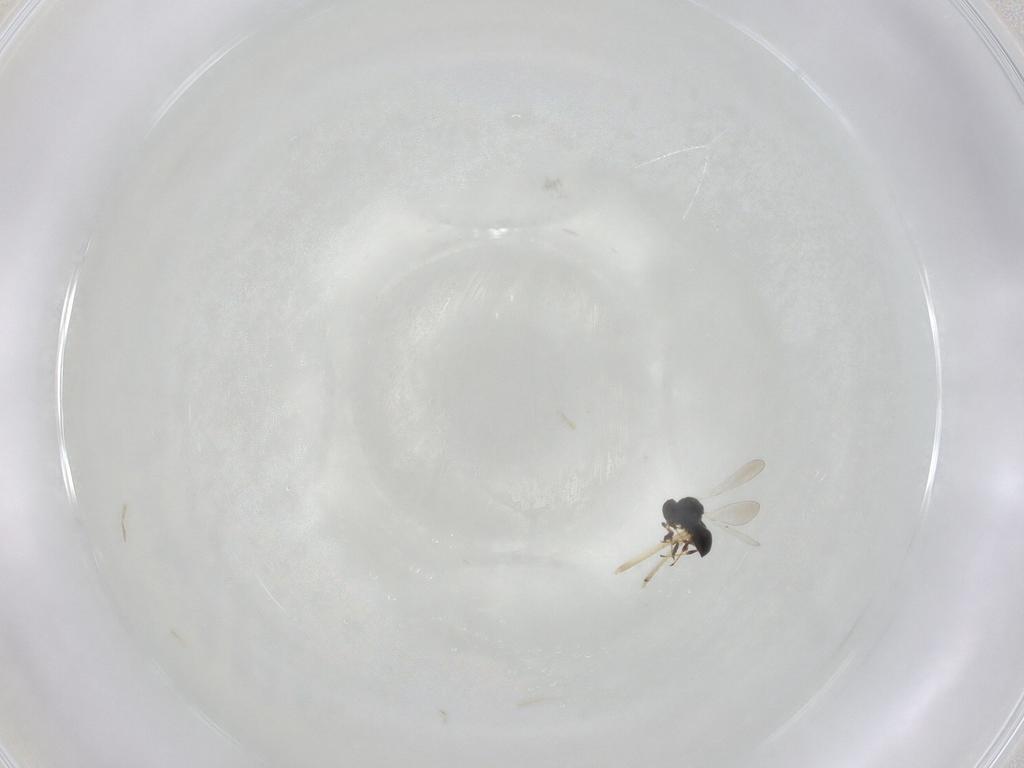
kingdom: Animalia
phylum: Arthropoda
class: Insecta
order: Hymenoptera
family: Platygastridae
